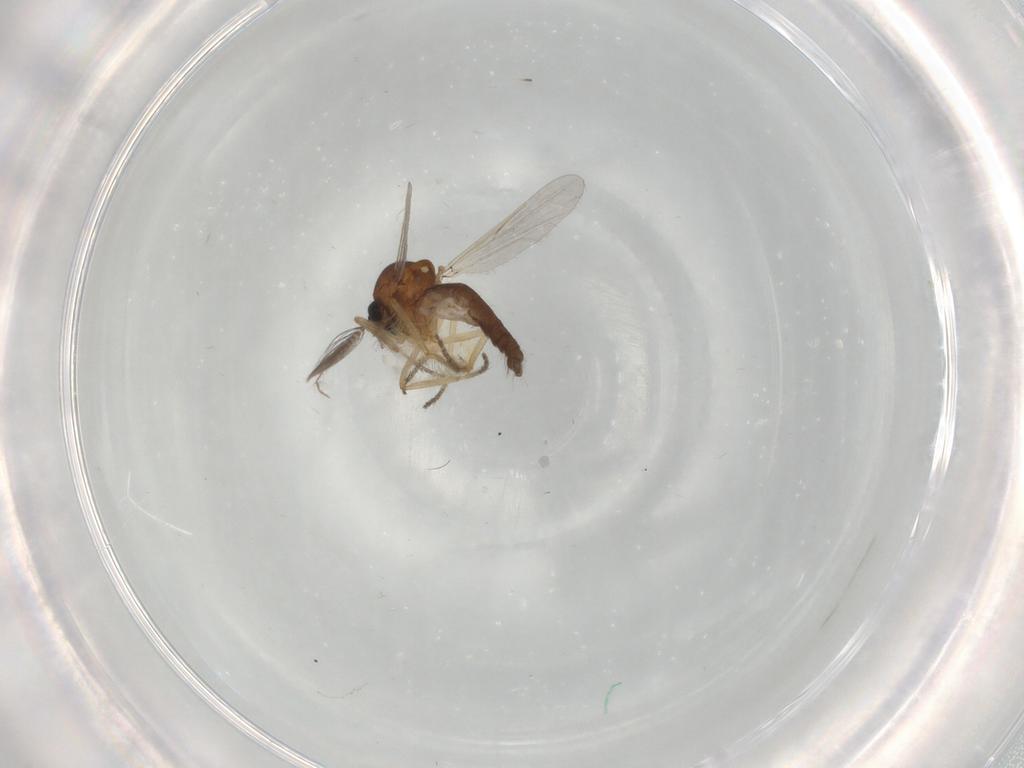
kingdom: Animalia
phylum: Arthropoda
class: Insecta
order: Diptera
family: Ceratopogonidae
